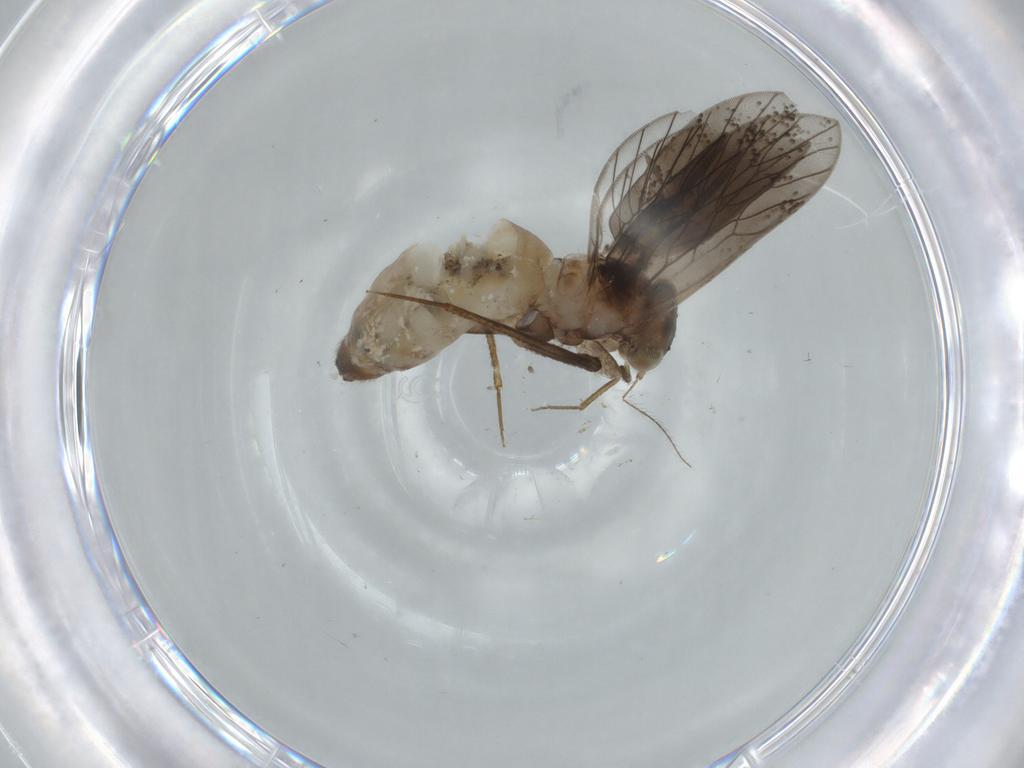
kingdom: Animalia
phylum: Arthropoda
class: Insecta
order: Psocodea
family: Lepidopsocidae
